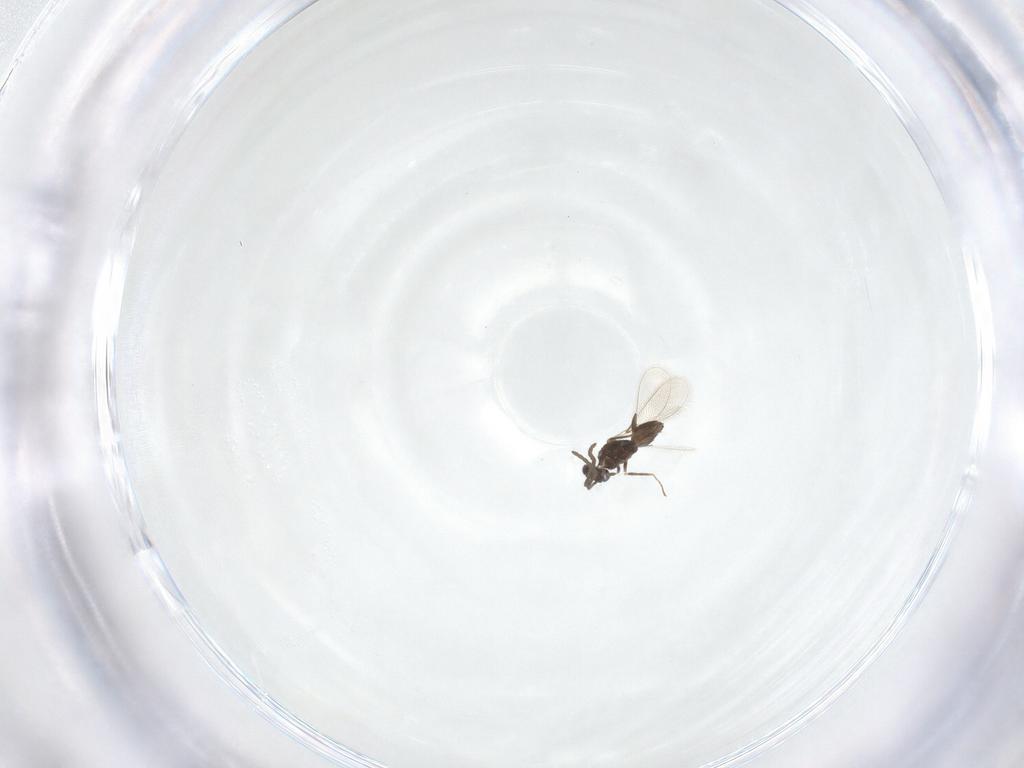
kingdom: Animalia
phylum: Arthropoda
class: Insecta
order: Hymenoptera
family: Mymaridae
